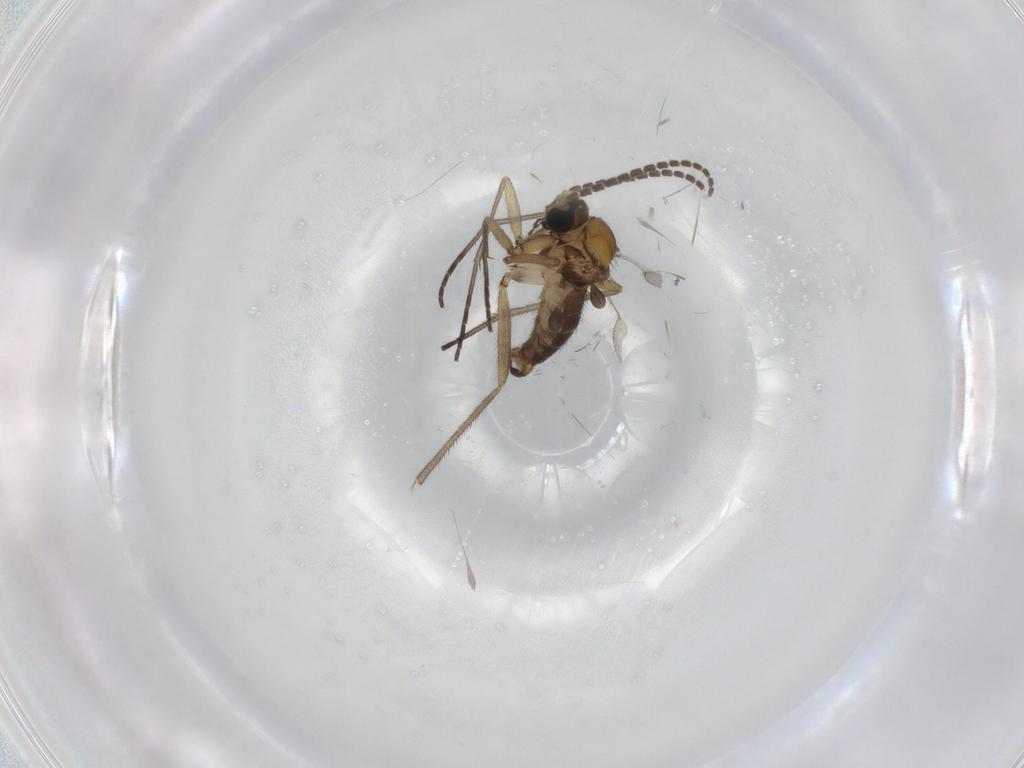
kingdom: Animalia
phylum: Arthropoda
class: Insecta
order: Diptera
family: Sciaridae
